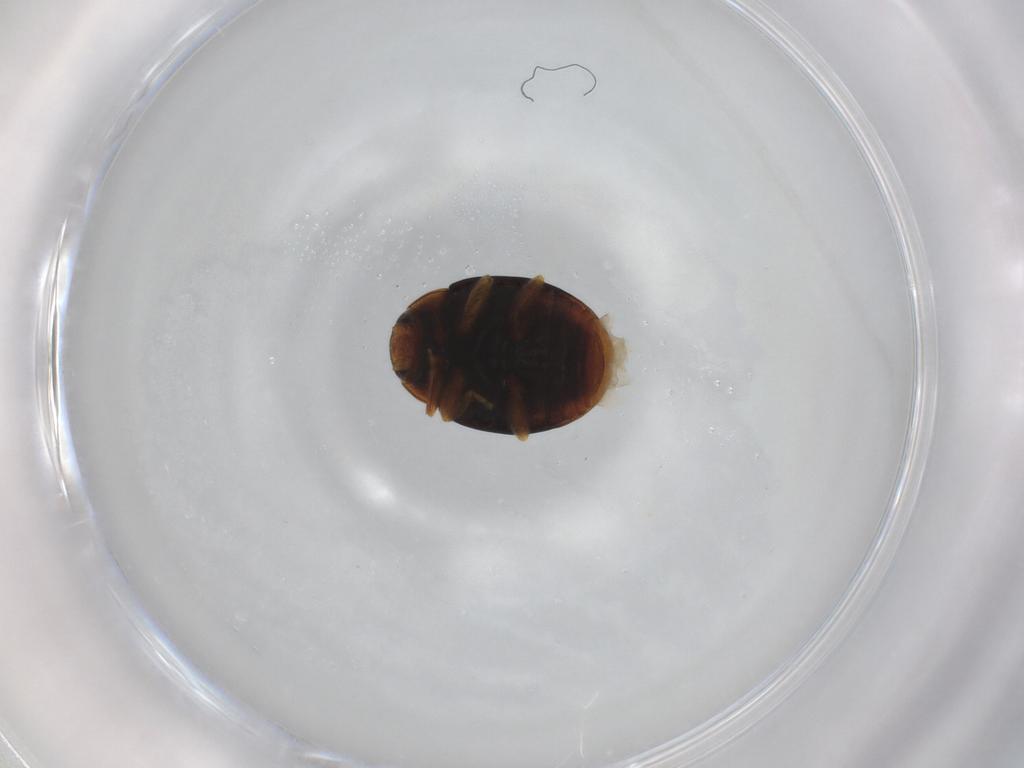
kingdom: Animalia
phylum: Arthropoda
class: Insecta
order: Coleoptera
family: Coccinellidae
